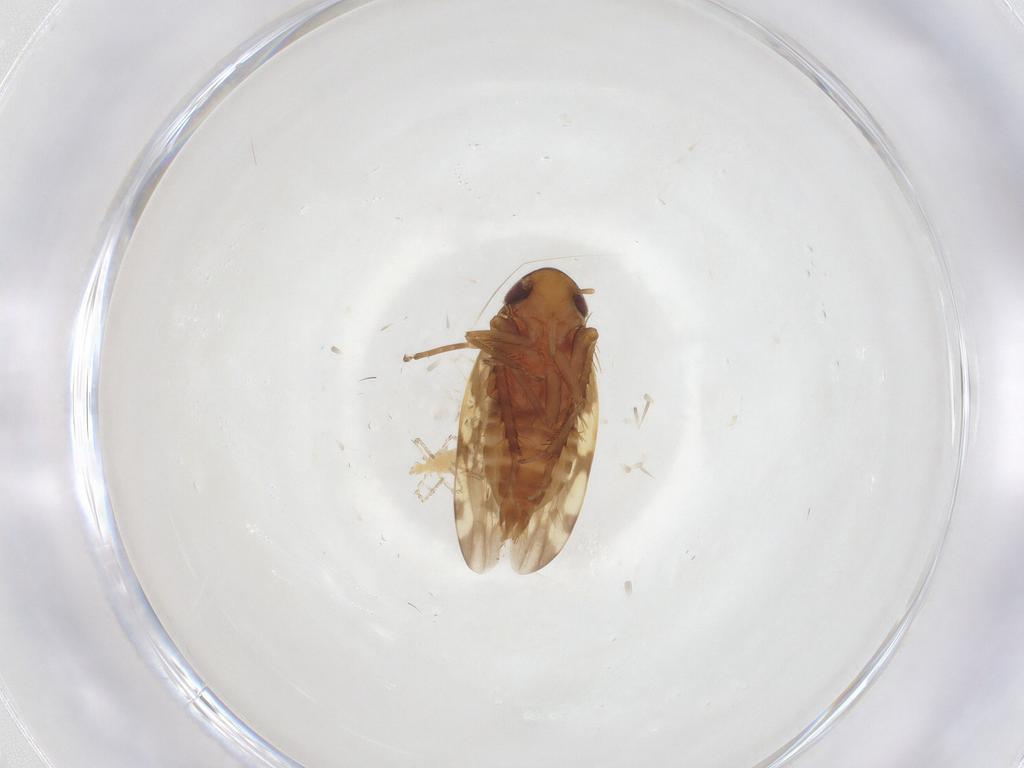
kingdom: Animalia
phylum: Arthropoda
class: Insecta
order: Hemiptera
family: Cicadellidae
